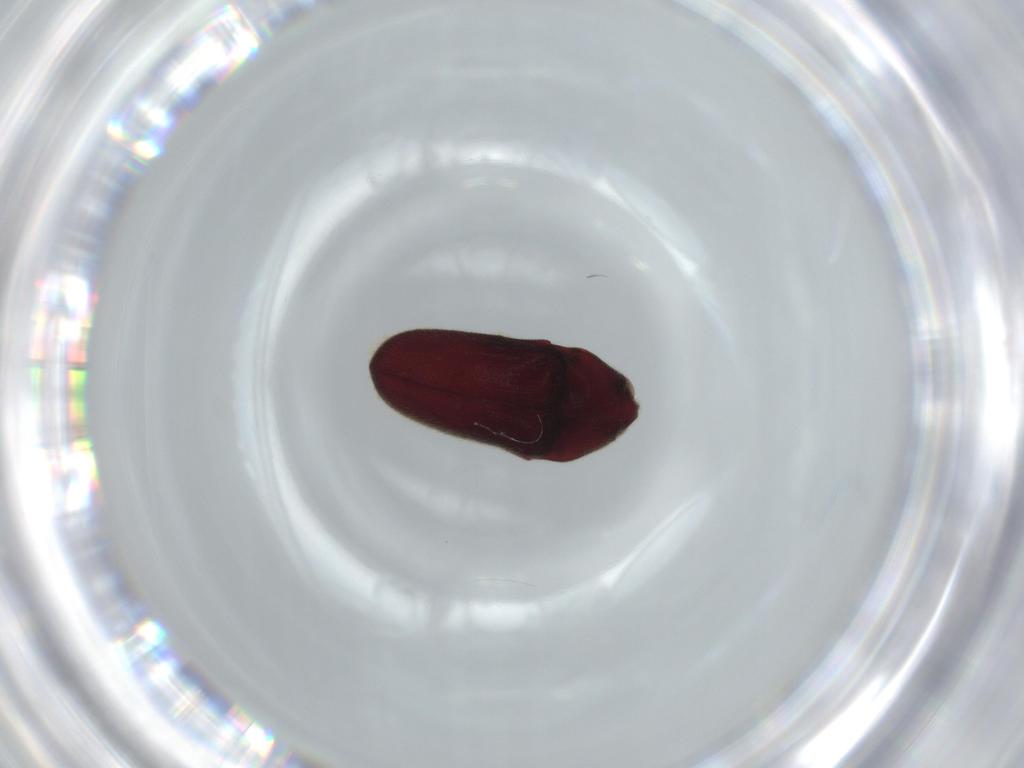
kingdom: Animalia
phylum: Arthropoda
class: Insecta
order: Coleoptera
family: Throscidae
